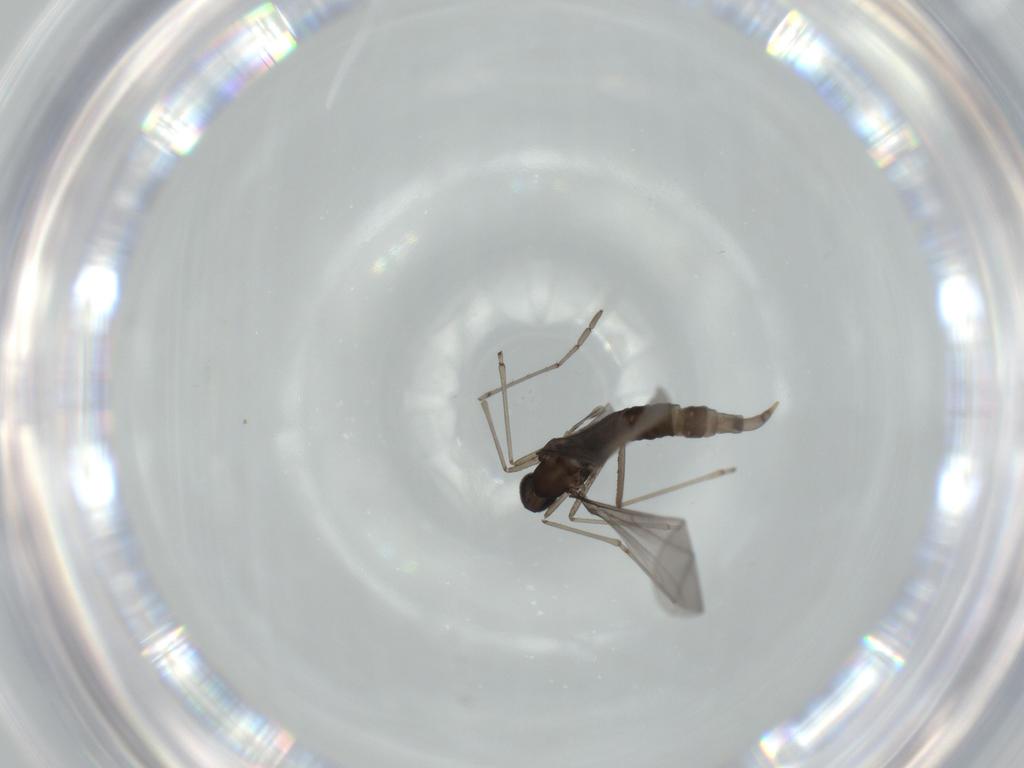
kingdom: Animalia
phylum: Arthropoda
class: Insecta
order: Diptera
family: Cecidomyiidae
